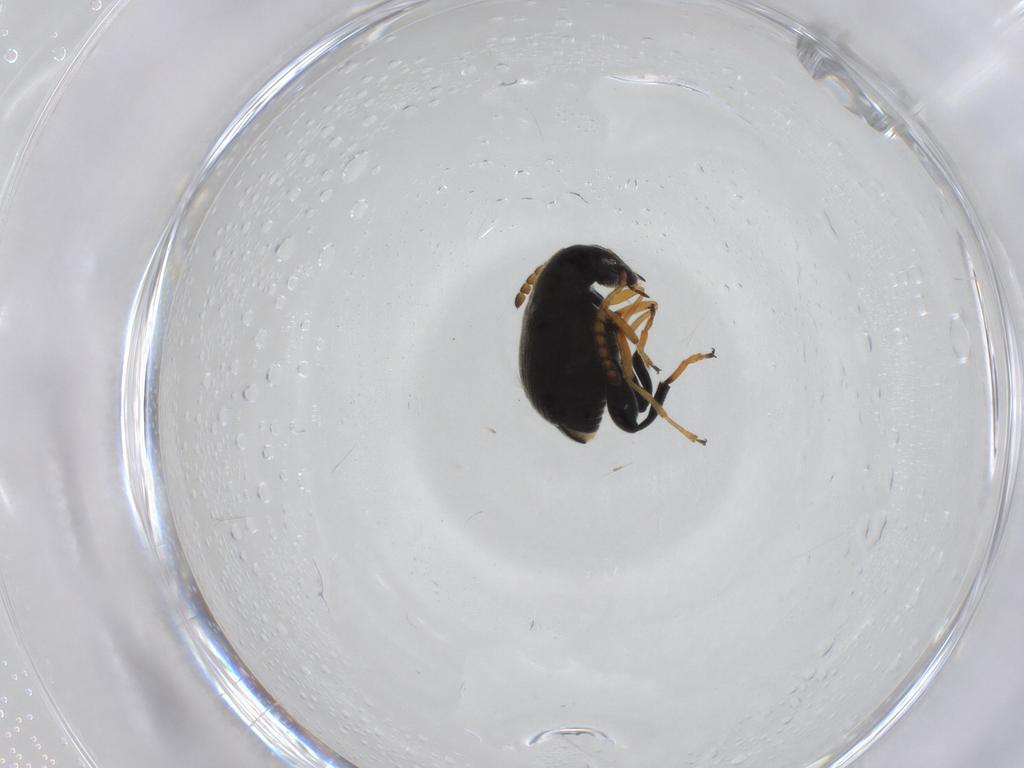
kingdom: Animalia
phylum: Arthropoda
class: Insecta
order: Coleoptera
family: Chrysomelidae
